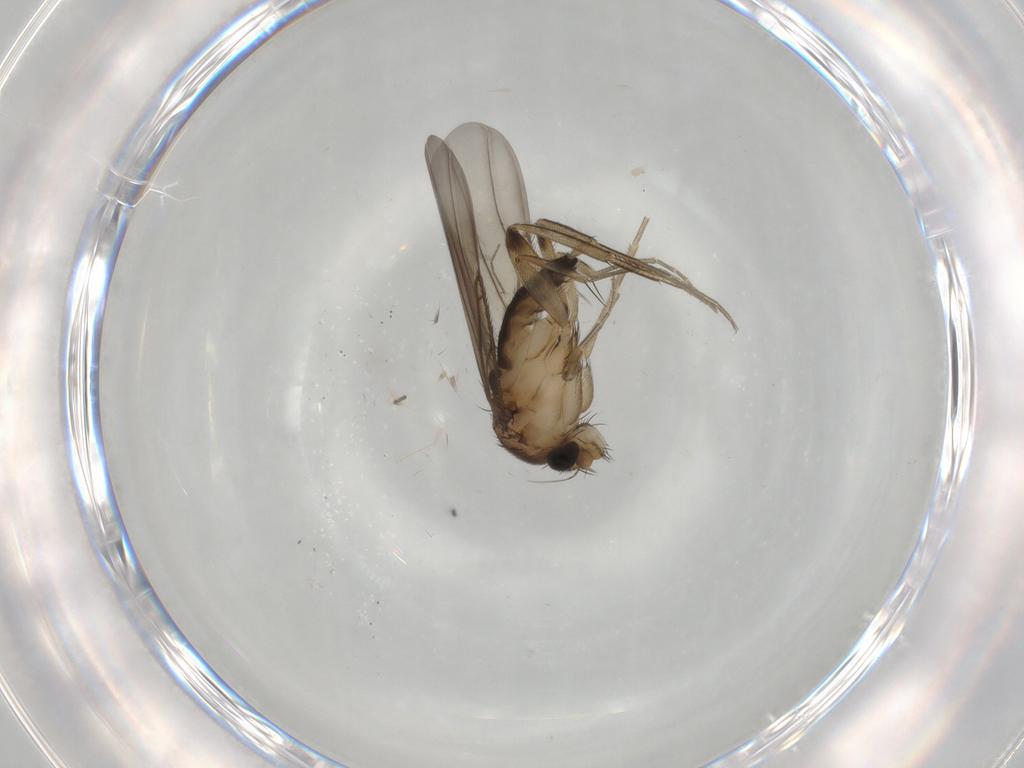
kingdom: Animalia
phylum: Arthropoda
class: Insecta
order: Diptera
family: Phoridae
